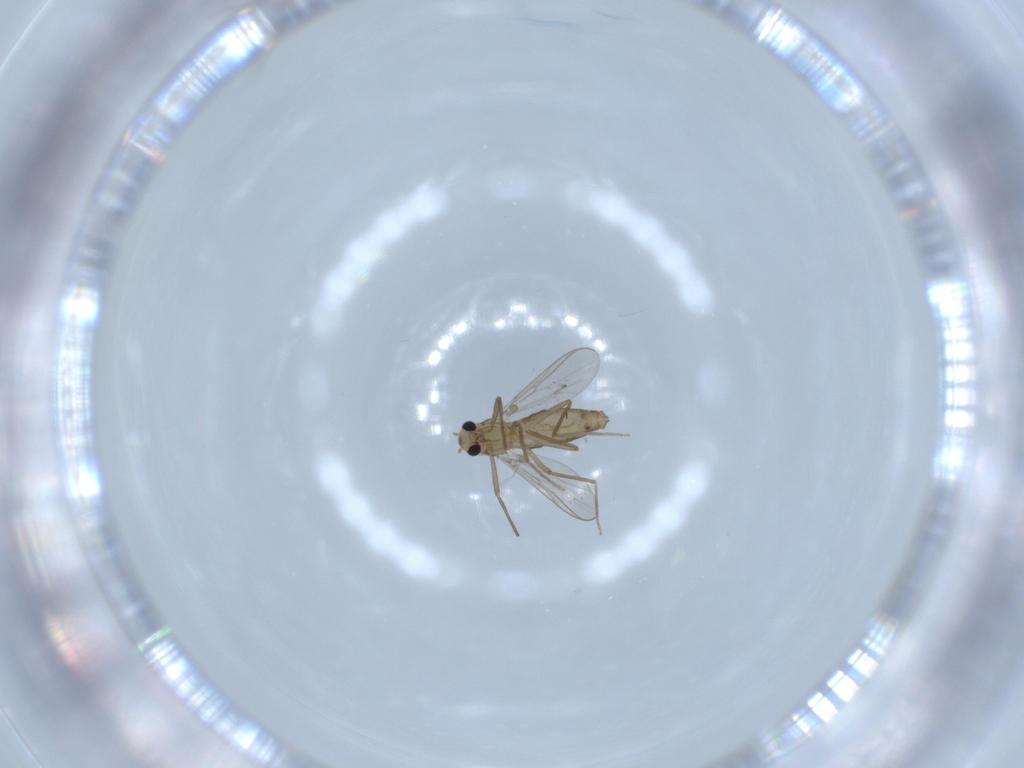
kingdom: Animalia
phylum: Arthropoda
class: Insecta
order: Diptera
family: Chironomidae
